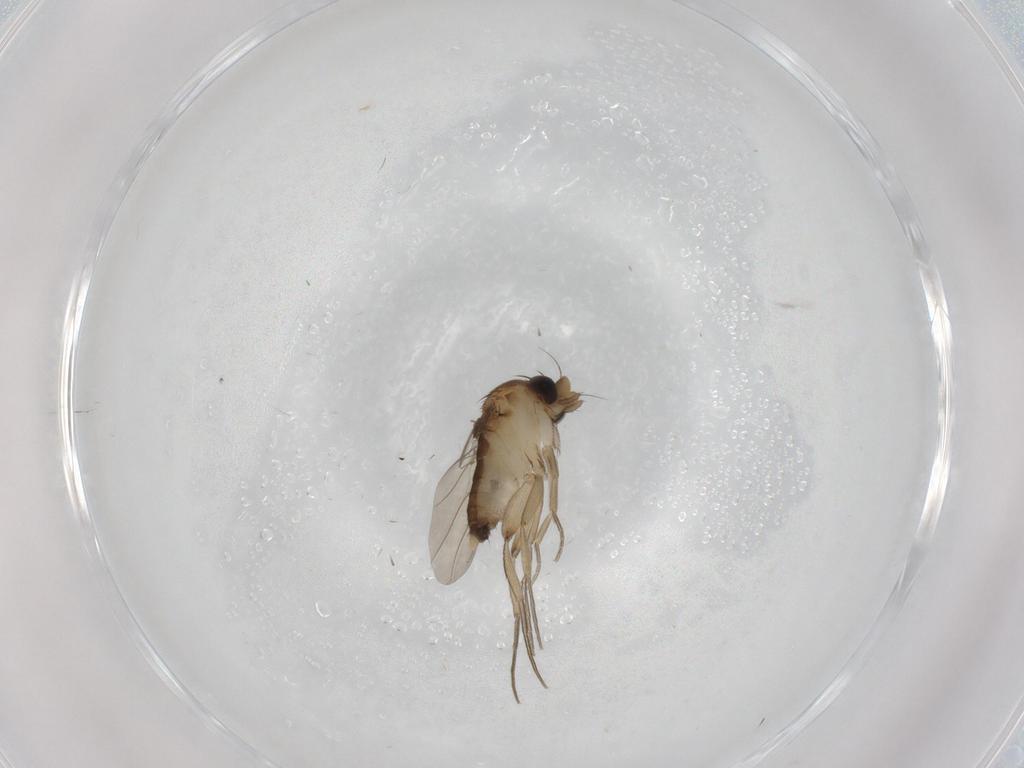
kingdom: Animalia
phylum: Arthropoda
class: Insecta
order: Diptera
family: Phoridae
